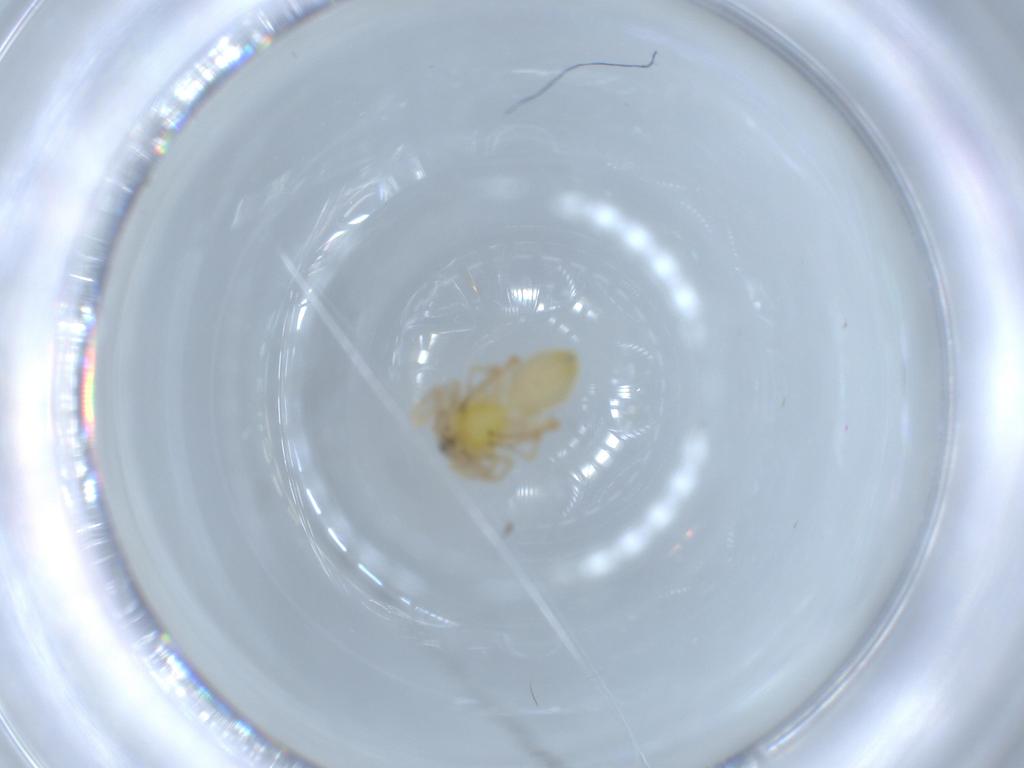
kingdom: Animalia
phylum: Arthropoda
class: Arachnida
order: Araneae
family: Anyphaenidae
